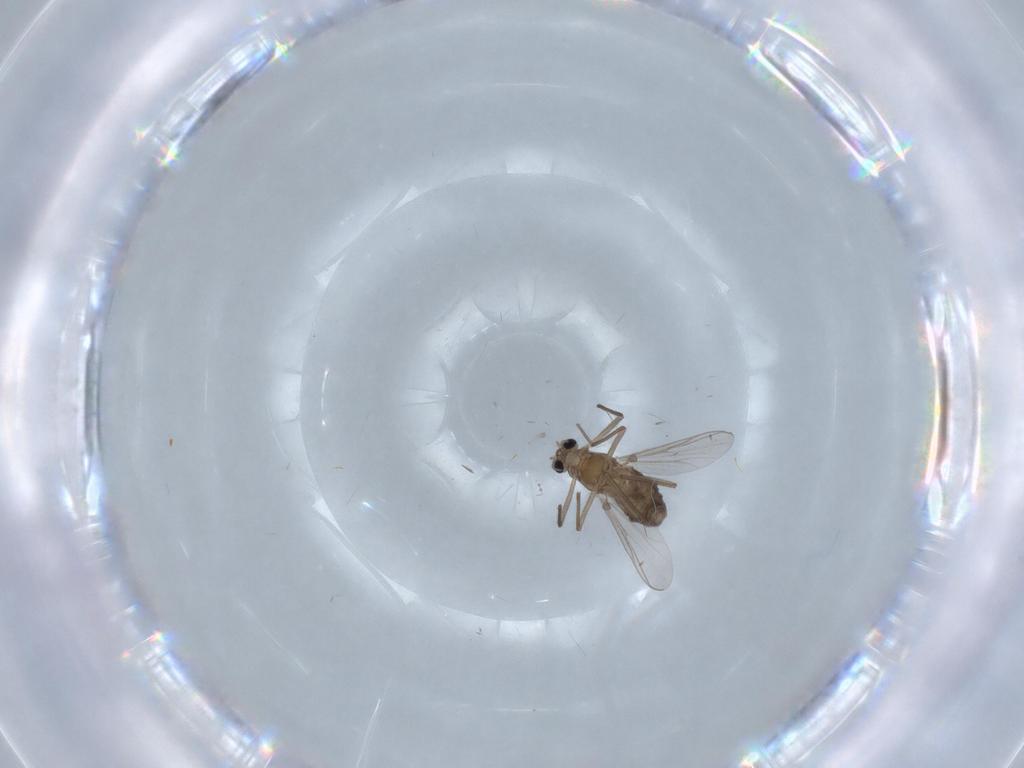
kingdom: Animalia
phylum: Arthropoda
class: Insecta
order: Diptera
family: Chironomidae
